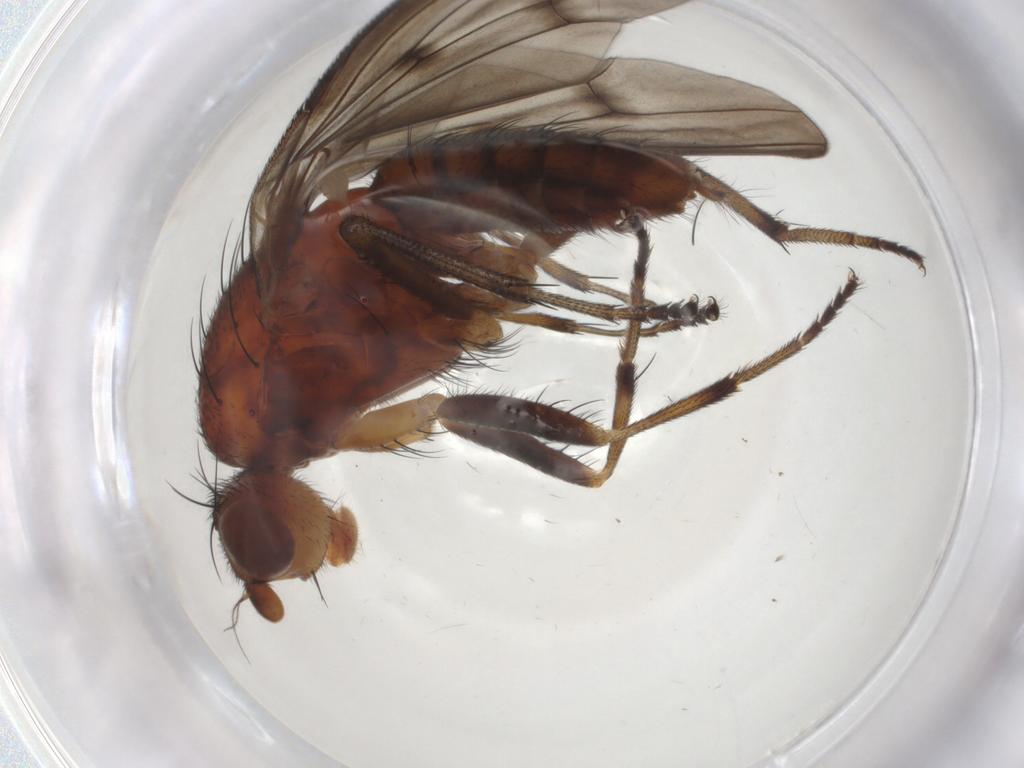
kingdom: Animalia
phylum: Arthropoda
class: Insecta
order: Diptera
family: Heleomyzidae
